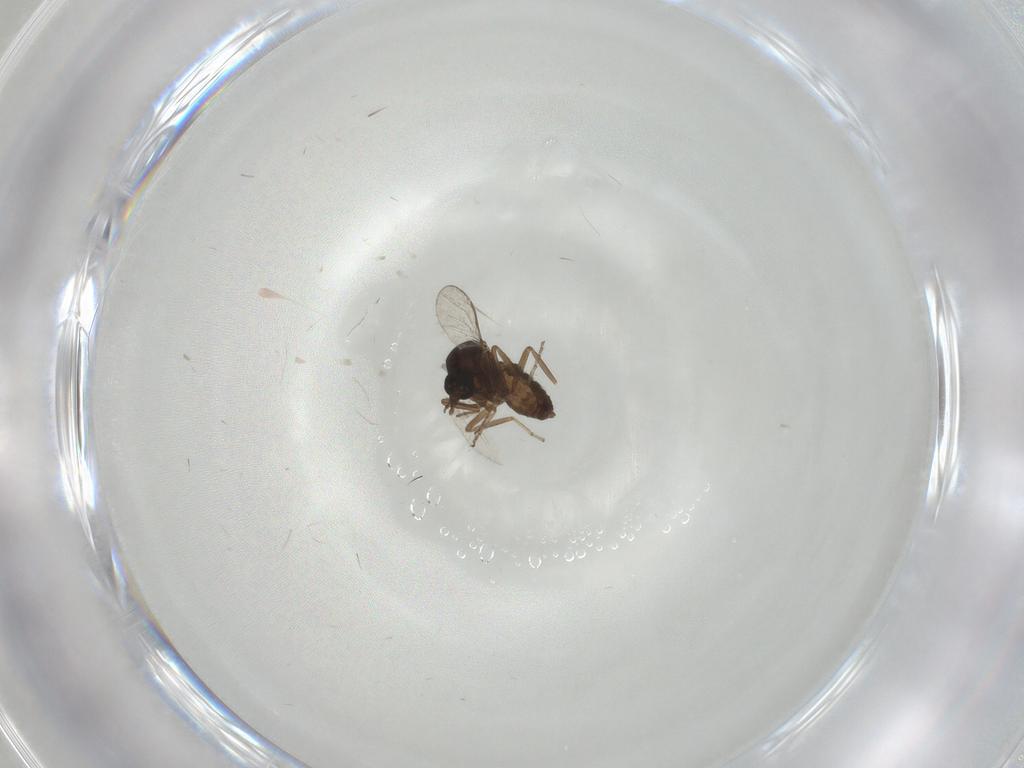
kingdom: Animalia
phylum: Arthropoda
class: Insecta
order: Diptera
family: Ceratopogonidae
